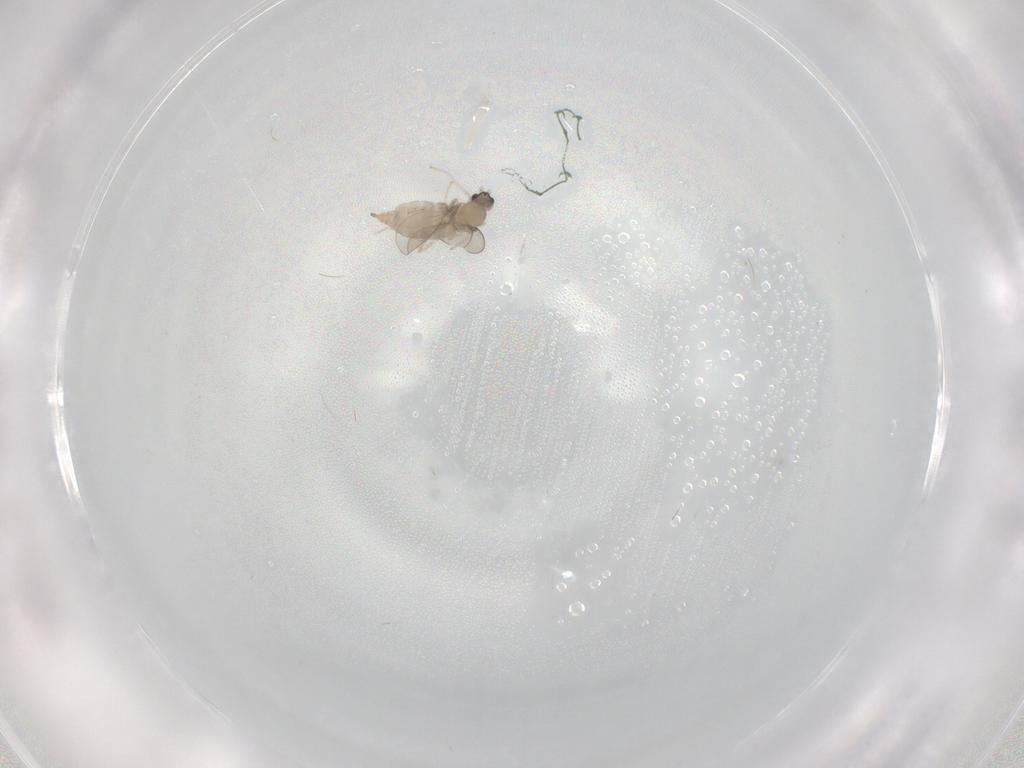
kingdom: Animalia
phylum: Arthropoda
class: Insecta
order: Diptera
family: Cecidomyiidae
